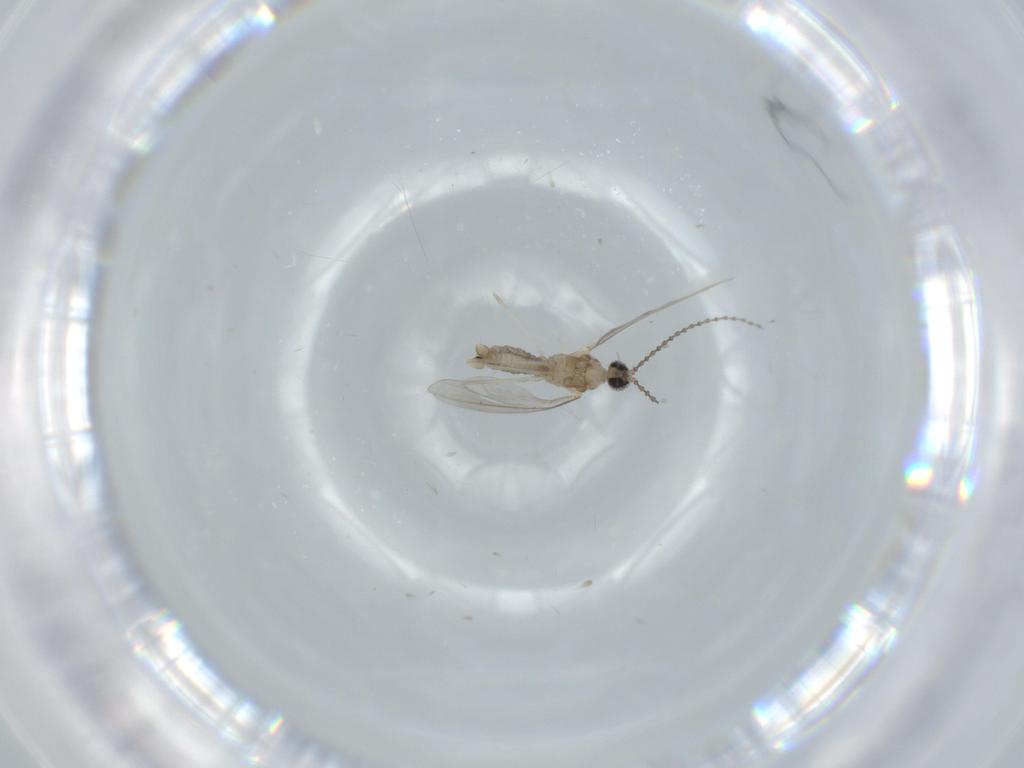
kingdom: Animalia
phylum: Arthropoda
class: Insecta
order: Diptera
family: Cecidomyiidae
